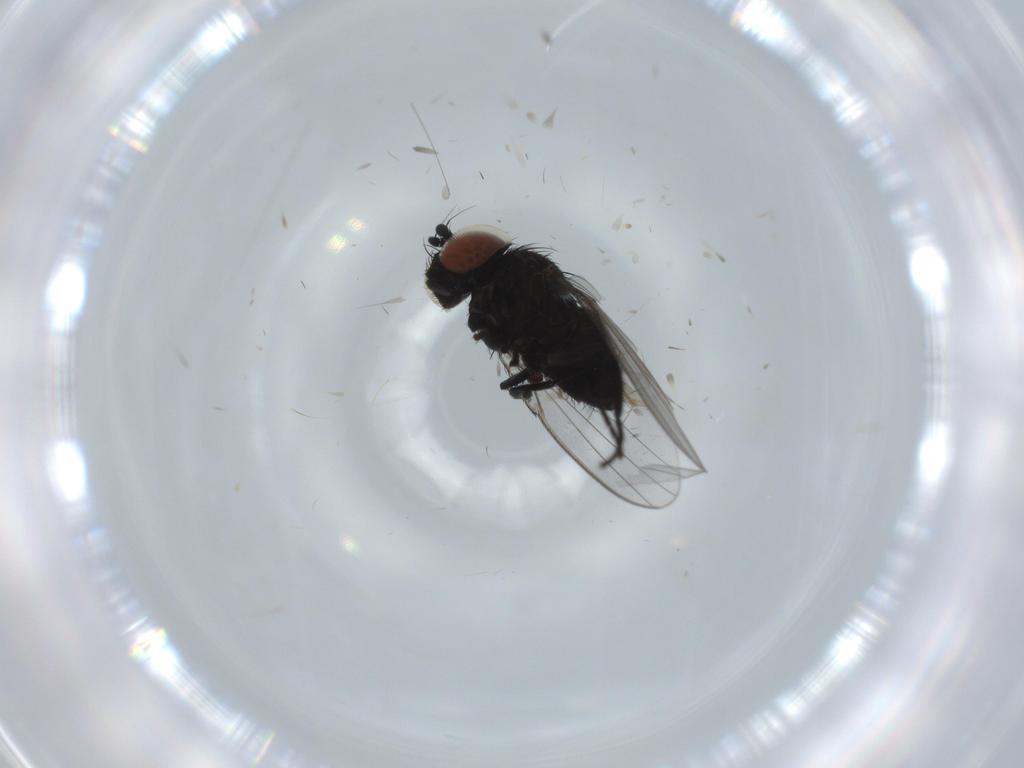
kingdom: Animalia
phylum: Arthropoda
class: Insecta
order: Diptera
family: Milichiidae
